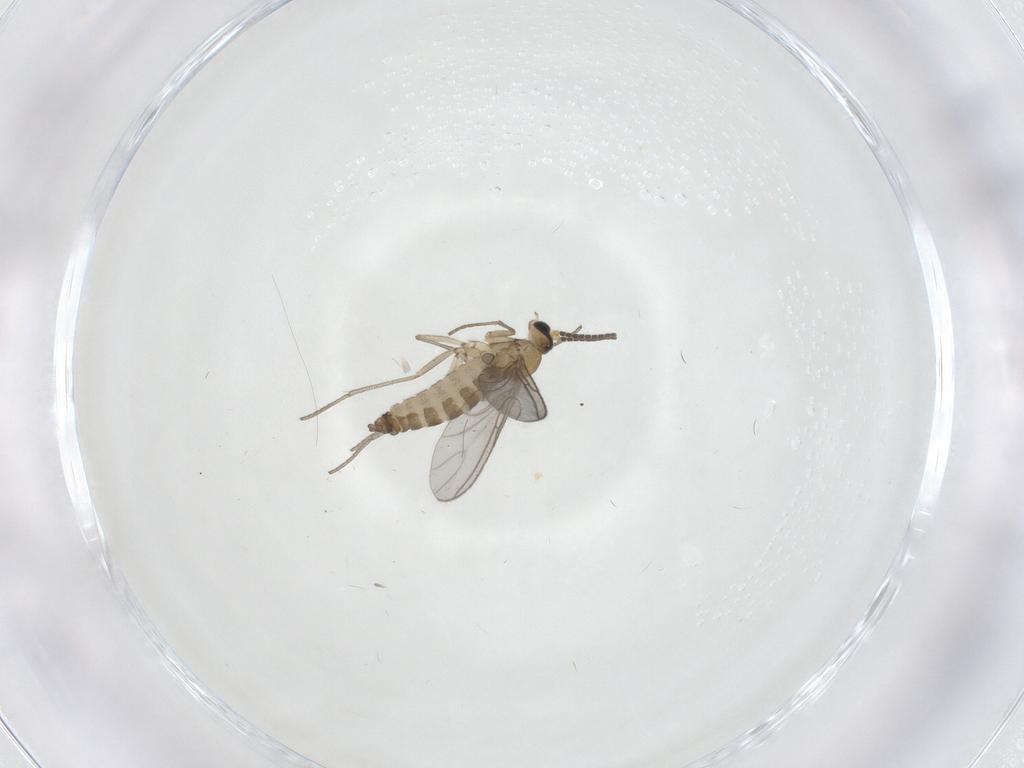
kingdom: Animalia
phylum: Arthropoda
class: Insecta
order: Diptera
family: Sciaridae
